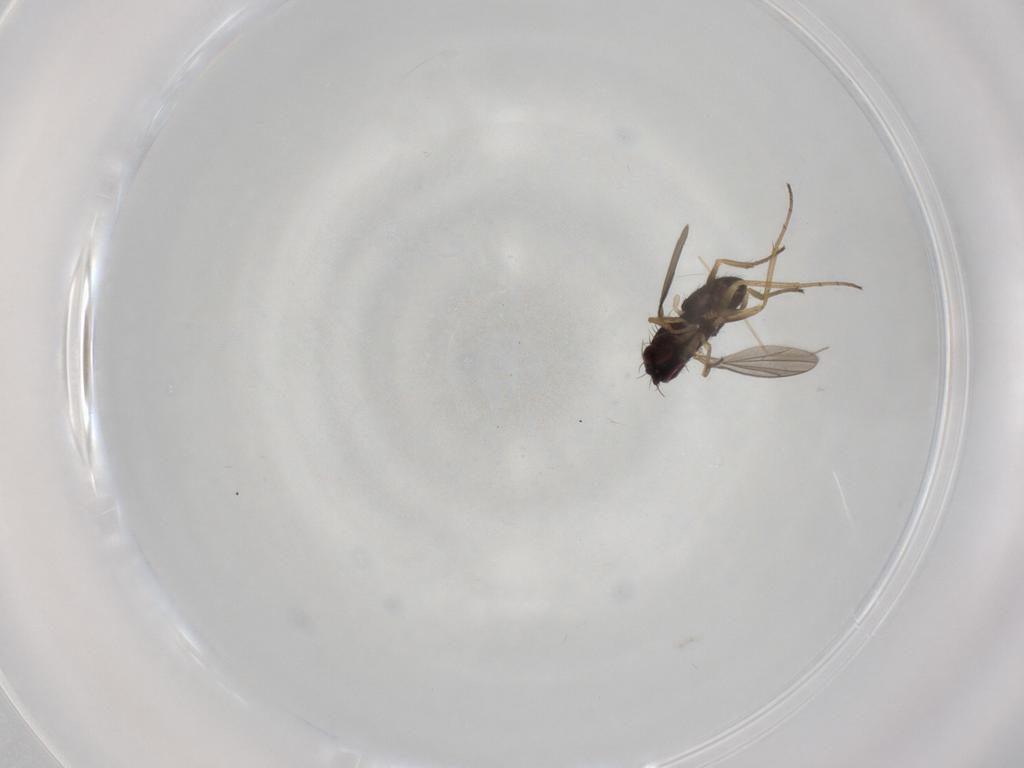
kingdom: Animalia
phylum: Arthropoda
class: Insecta
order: Diptera
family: Dolichopodidae
